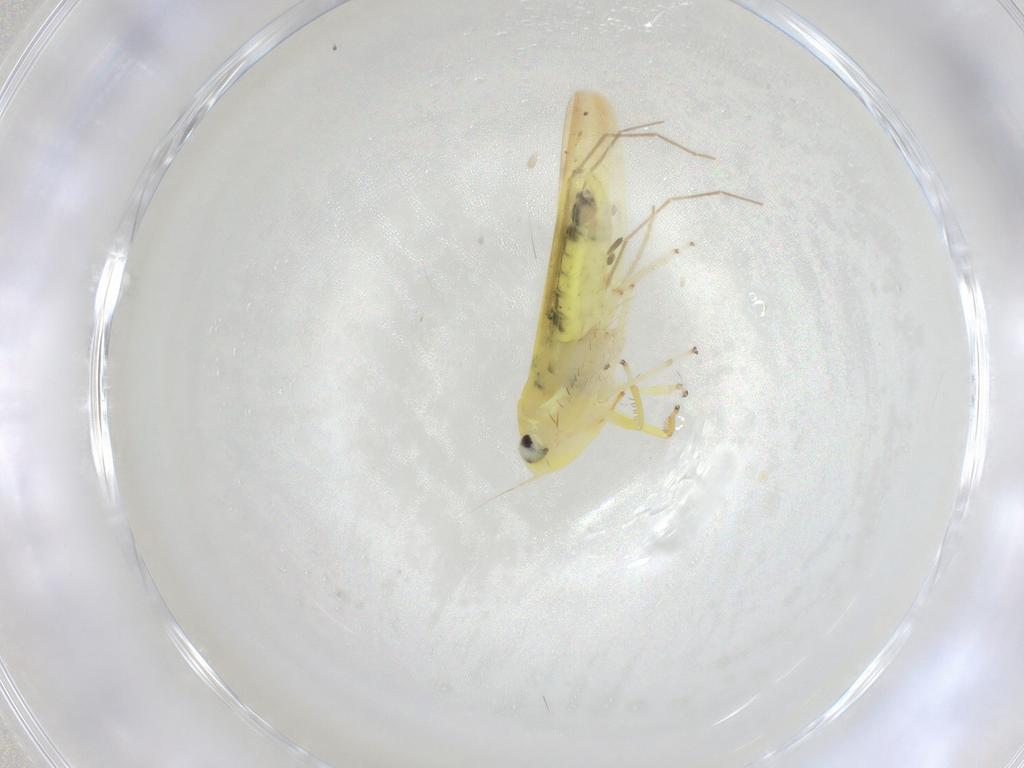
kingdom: Animalia
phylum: Arthropoda
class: Insecta
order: Hemiptera
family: Cicadellidae
